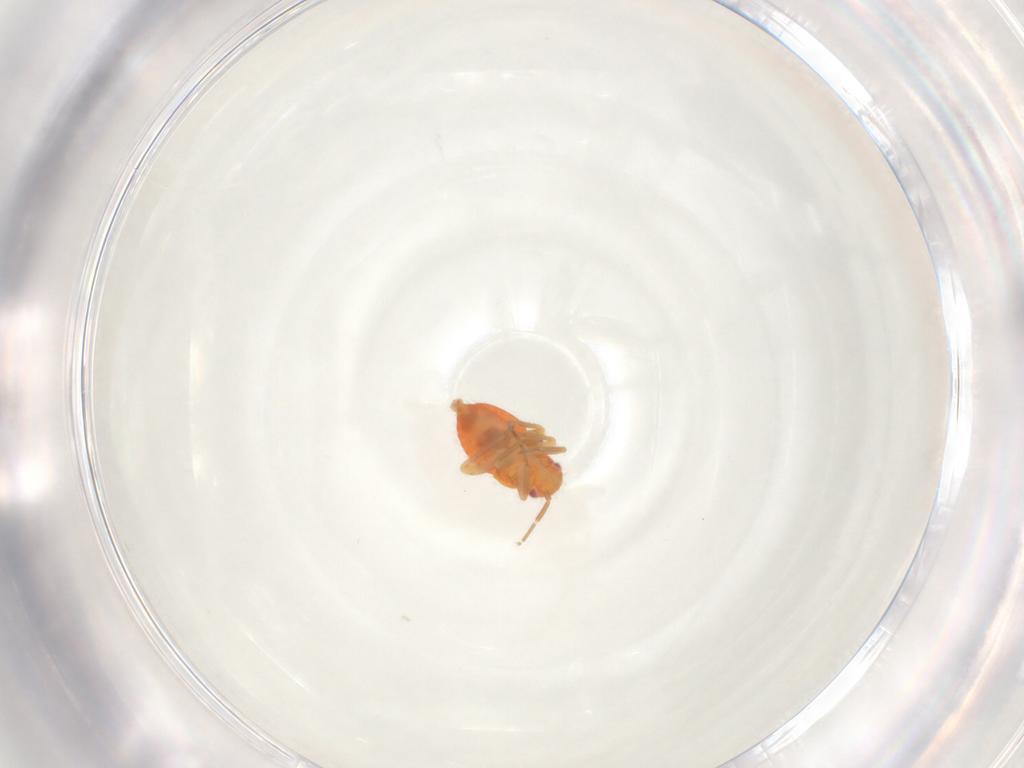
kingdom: Animalia
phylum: Arthropoda
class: Insecta
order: Hemiptera
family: Miridae
